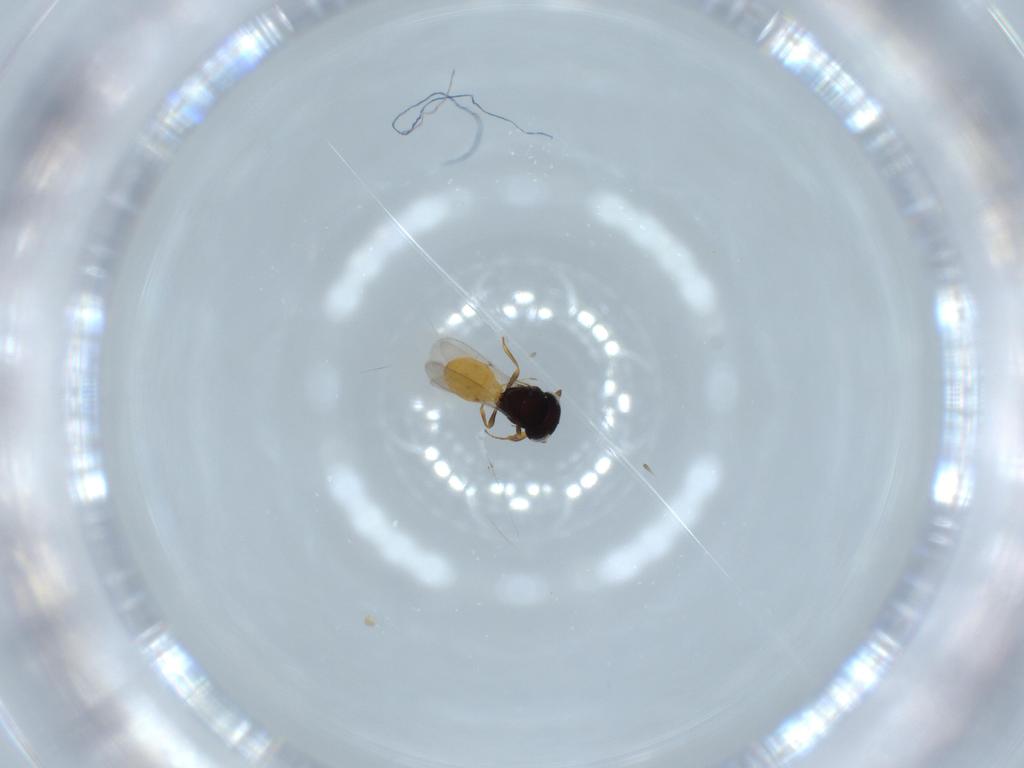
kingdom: Animalia
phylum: Arthropoda
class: Insecta
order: Hymenoptera
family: Scelionidae
